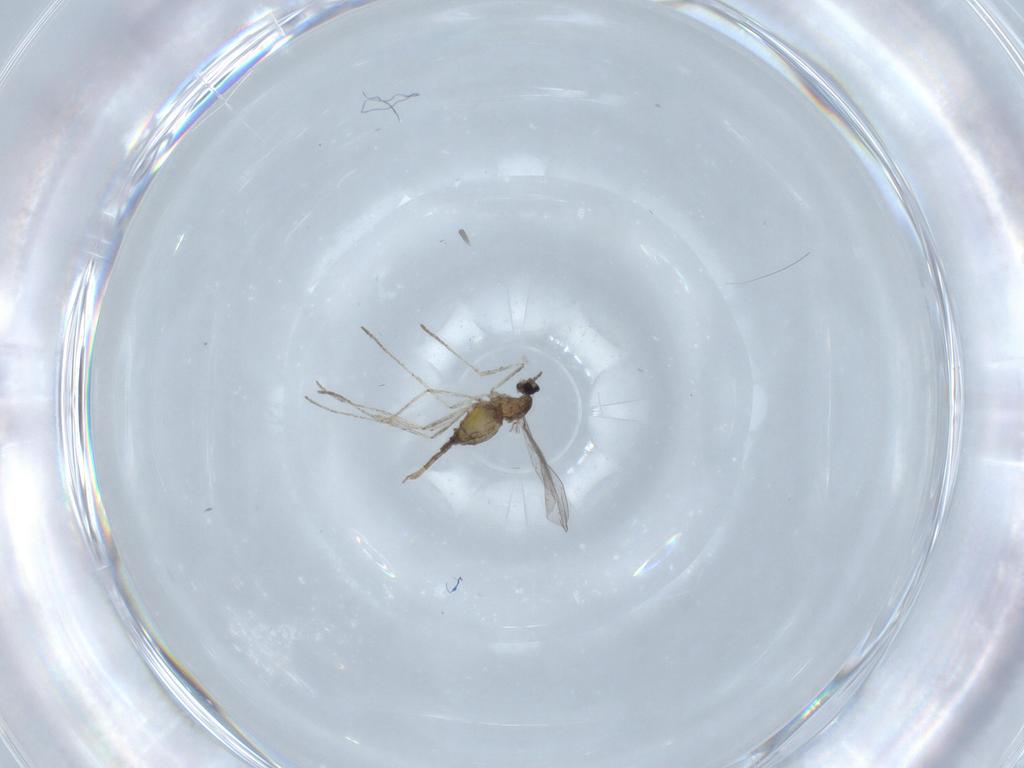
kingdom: Animalia
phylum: Arthropoda
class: Insecta
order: Diptera
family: Cecidomyiidae
